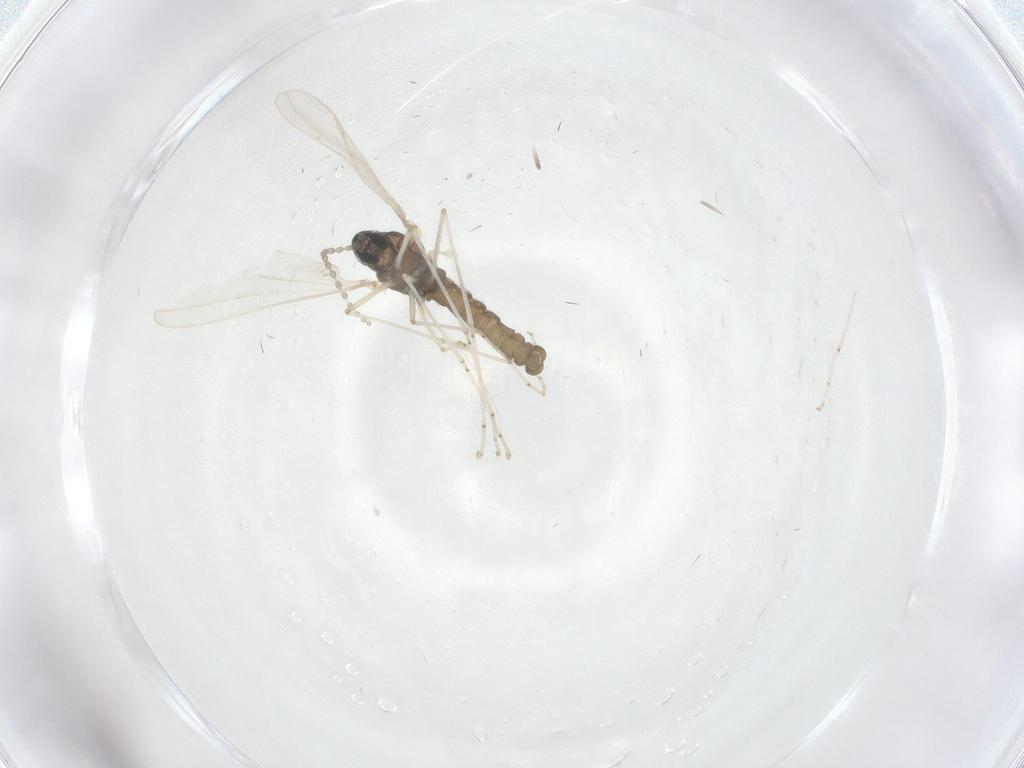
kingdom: Animalia
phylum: Arthropoda
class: Insecta
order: Diptera
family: Cecidomyiidae
